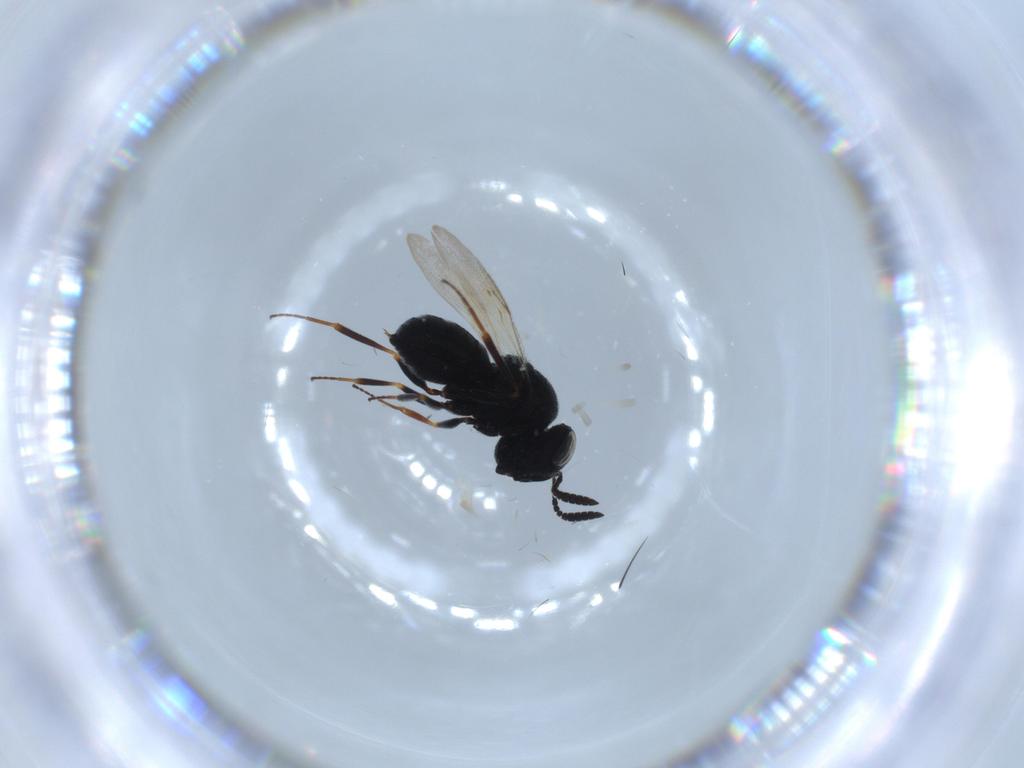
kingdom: Animalia
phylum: Arthropoda
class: Insecta
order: Hymenoptera
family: Scelionidae
